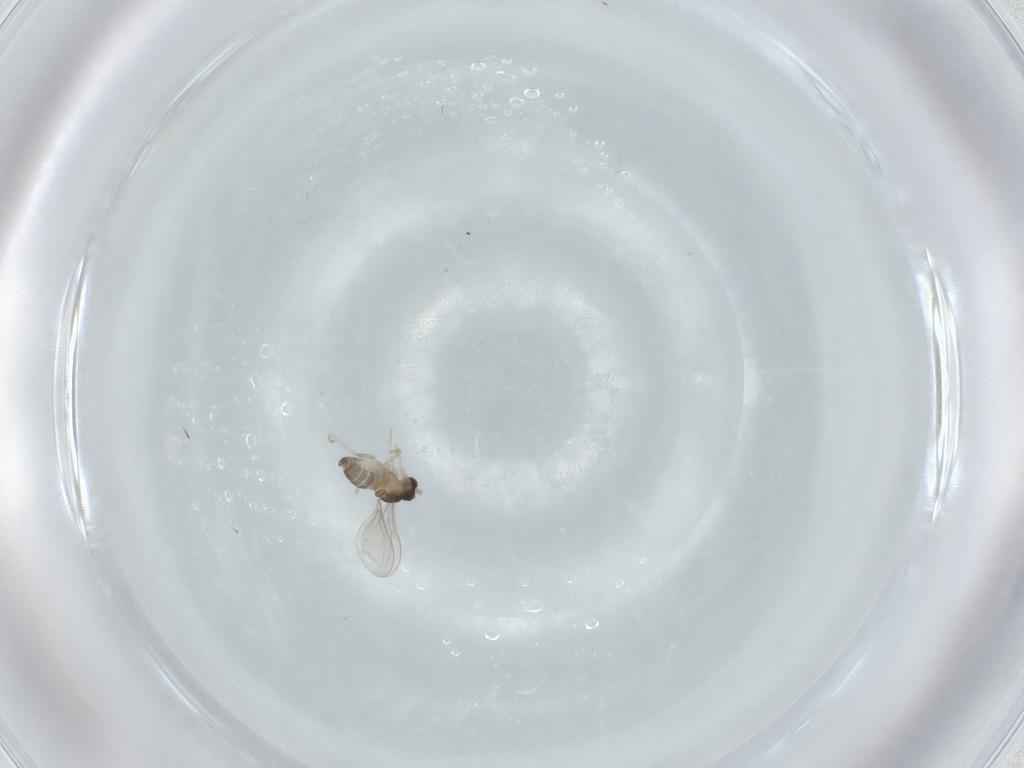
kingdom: Animalia
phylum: Arthropoda
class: Insecta
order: Diptera
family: Cecidomyiidae
